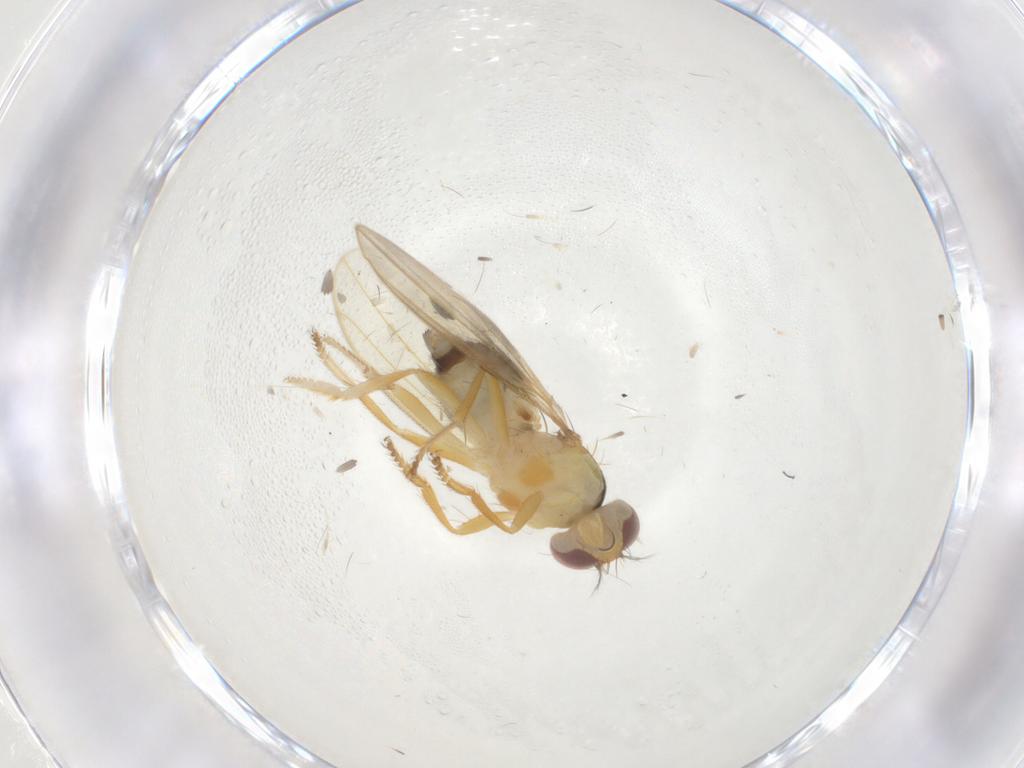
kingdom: Animalia
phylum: Arthropoda
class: Insecta
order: Diptera
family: Periscelididae
